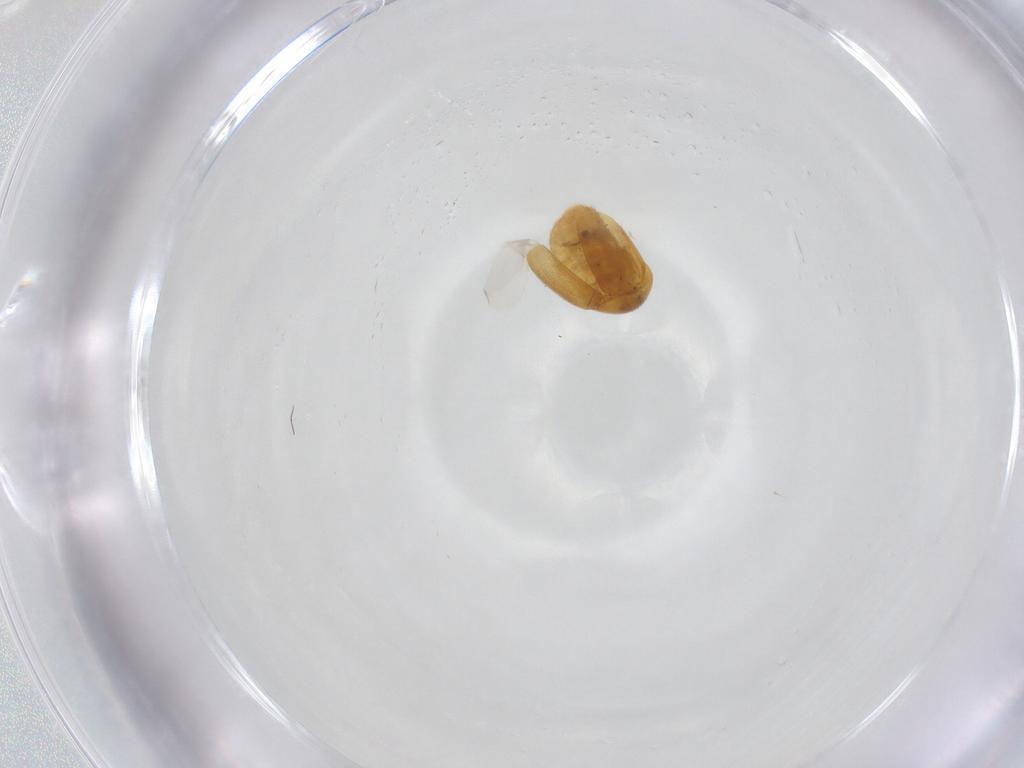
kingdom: Animalia
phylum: Arthropoda
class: Insecta
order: Coleoptera
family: Corylophidae
